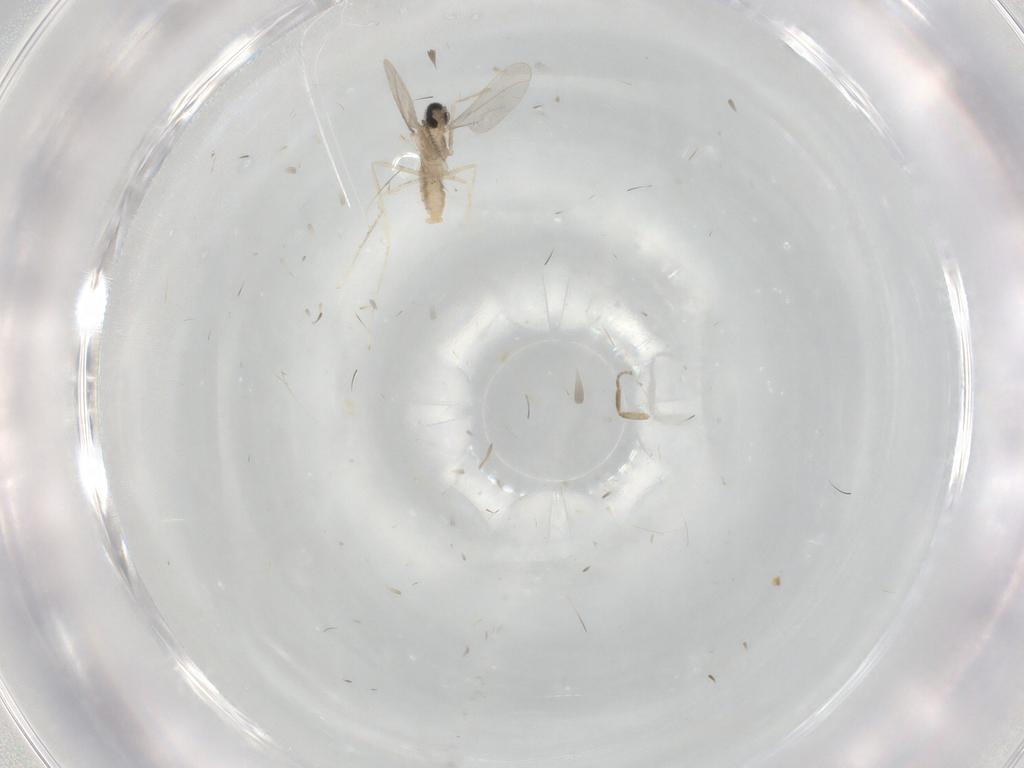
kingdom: Animalia
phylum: Arthropoda
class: Insecta
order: Diptera
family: Cecidomyiidae
